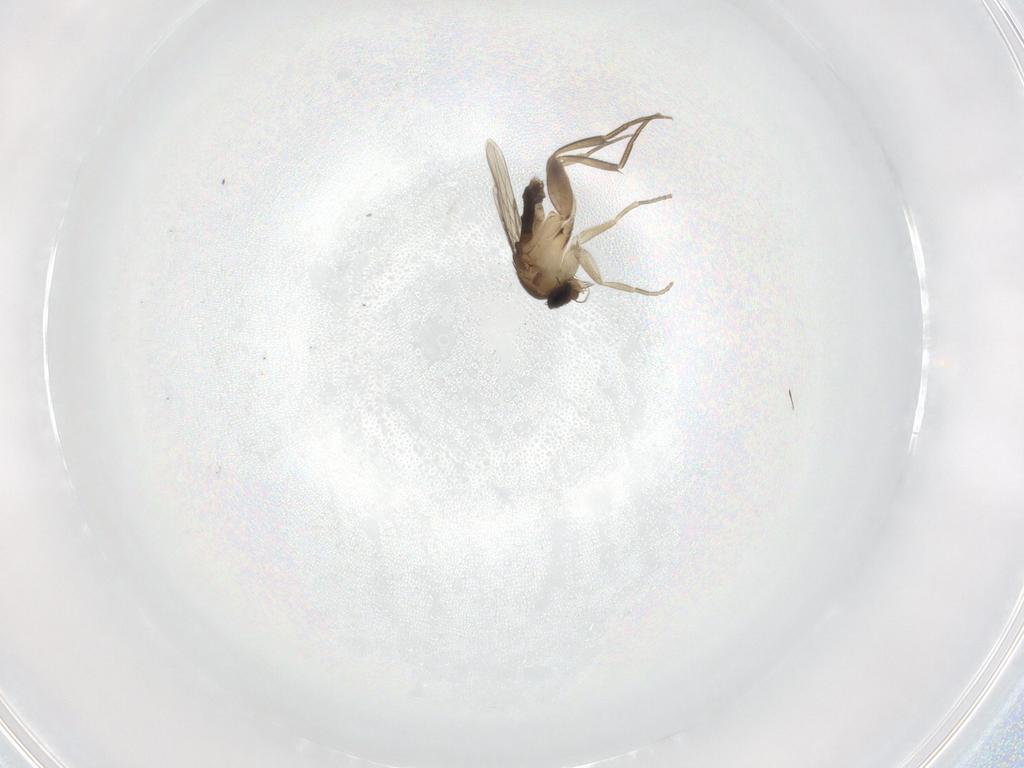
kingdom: Animalia
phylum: Arthropoda
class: Insecta
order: Diptera
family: Phoridae
